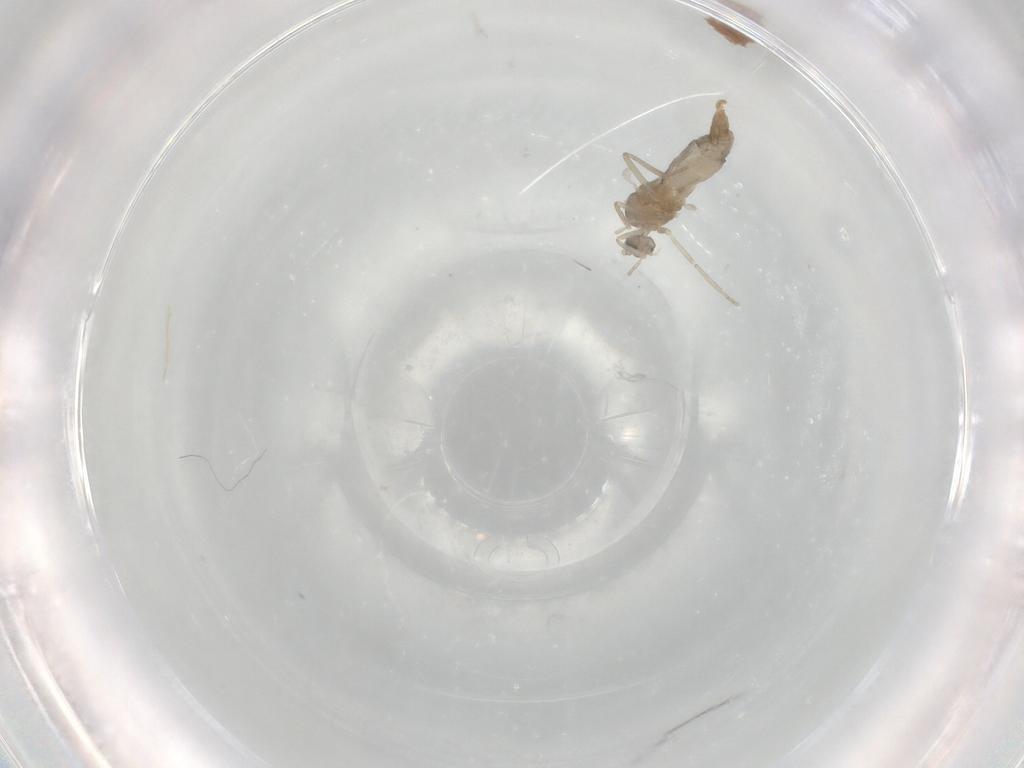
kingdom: Animalia
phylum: Arthropoda
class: Insecta
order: Diptera
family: Cecidomyiidae
